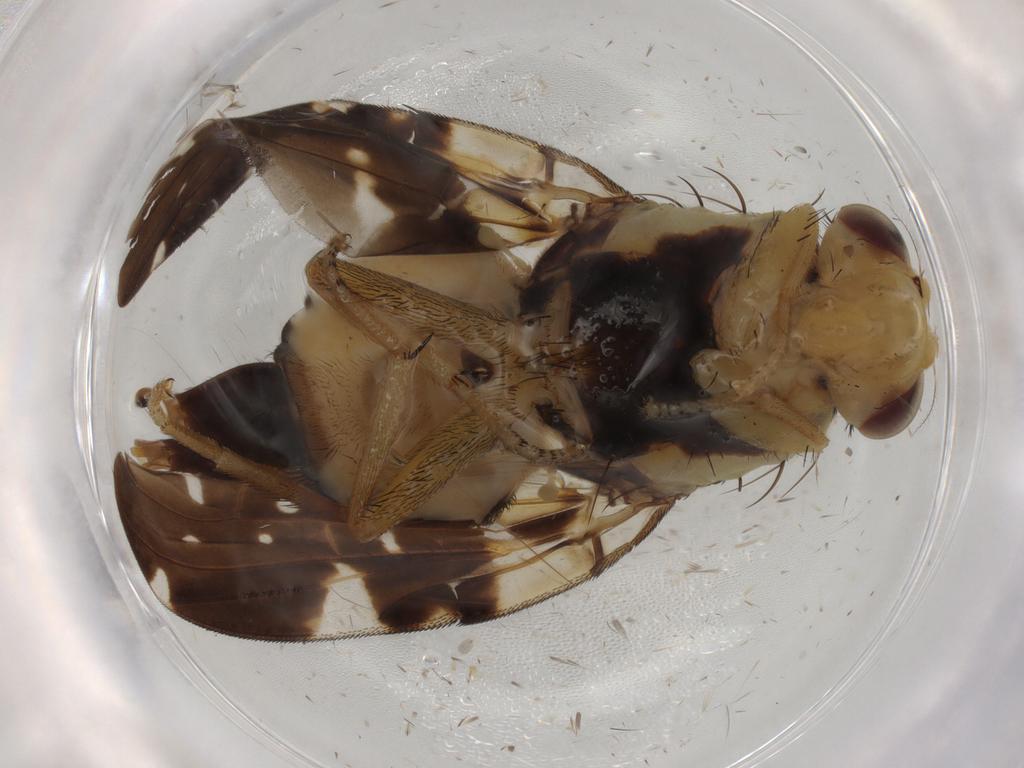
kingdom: Animalia
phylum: Arthropoda
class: Insecta
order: Diptera
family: Tephritidae
